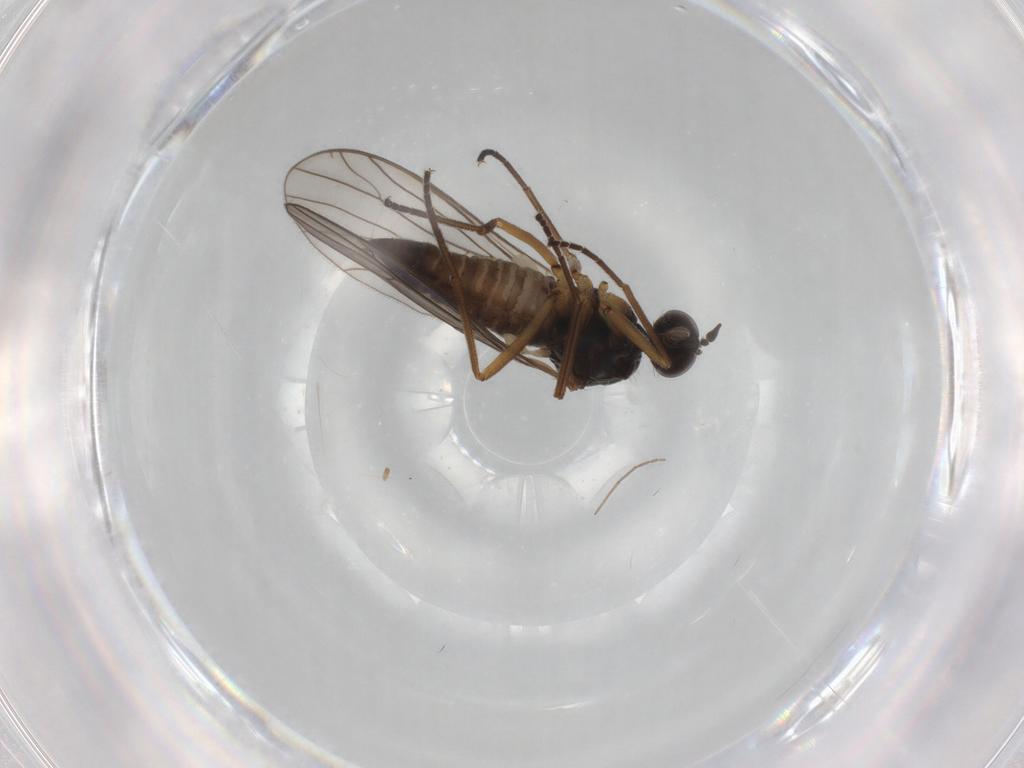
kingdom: Animalia
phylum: Arthropoda
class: Insecta
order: Diptera
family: Empididae
